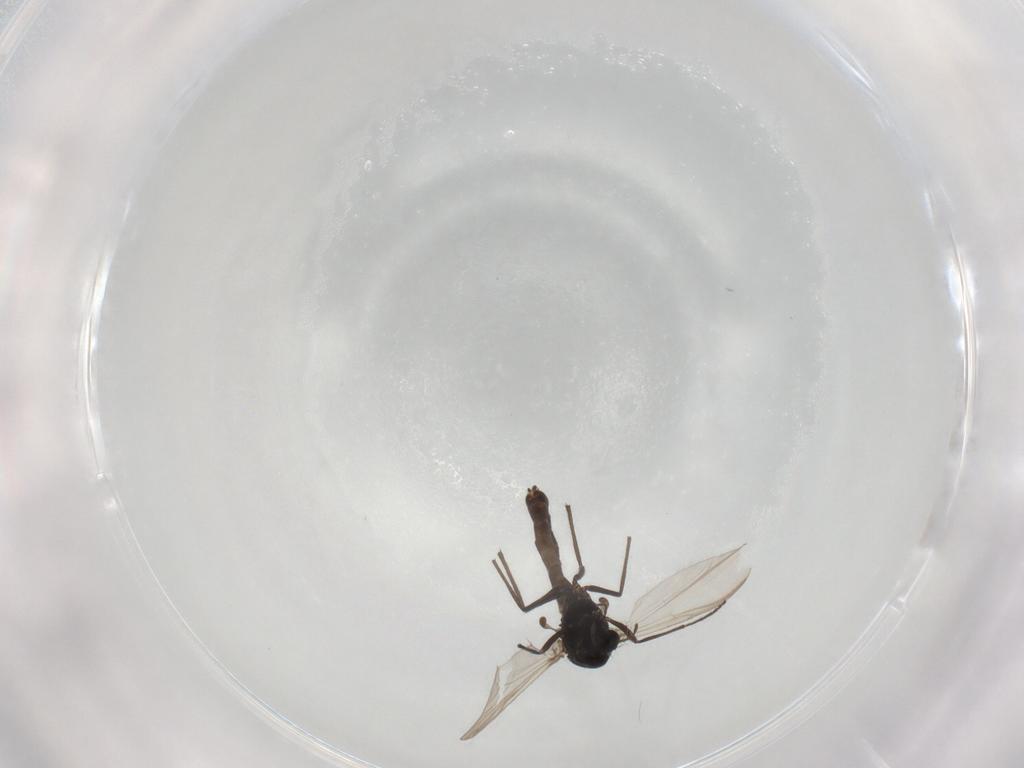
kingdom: Animalia
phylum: Arthropoda
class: Insecta
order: Diptera
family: Chironomidae
